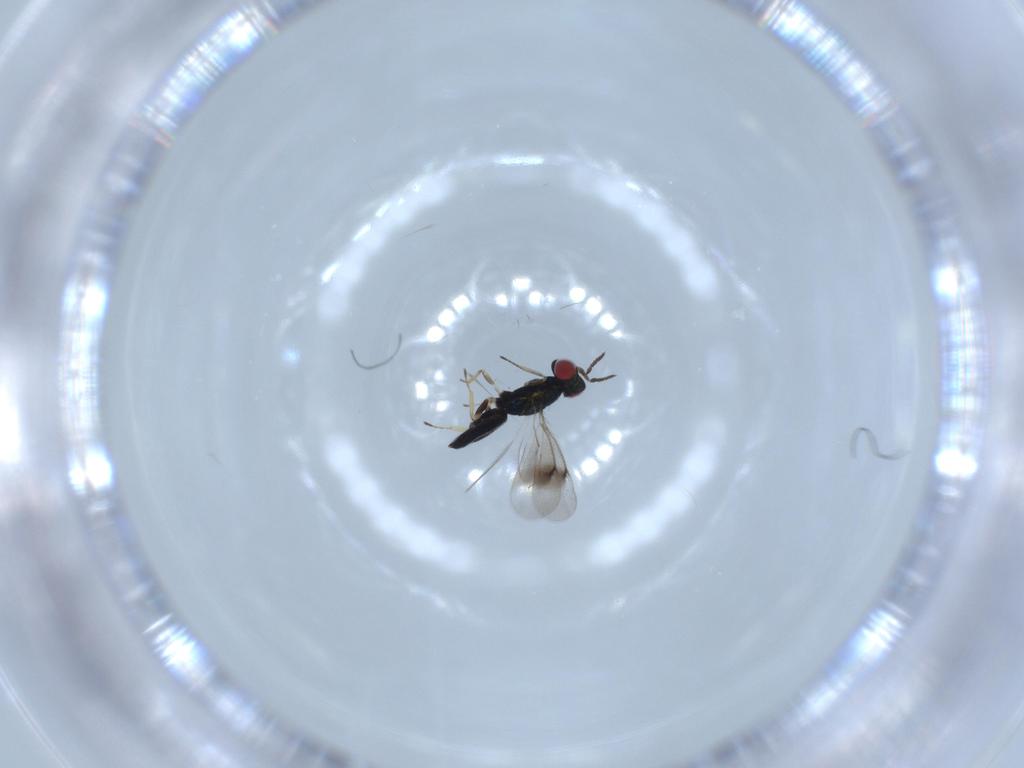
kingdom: Animalia
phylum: Arthropoda
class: Insecta
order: Hymenoptera
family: Eulophidae
